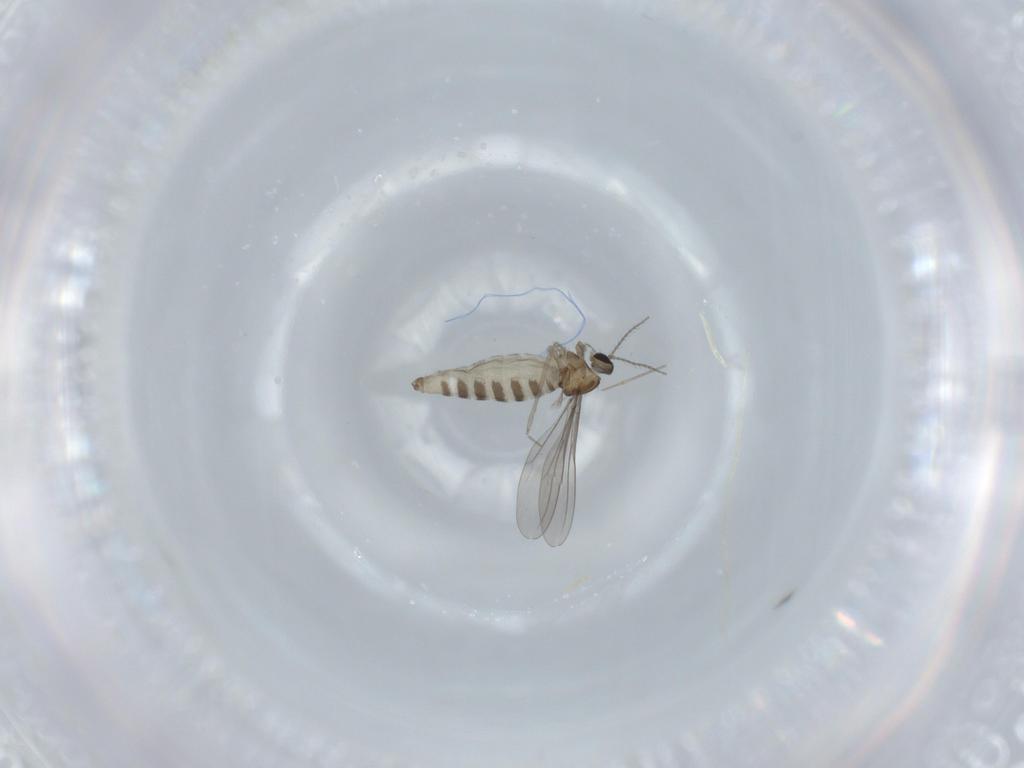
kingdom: Animalia
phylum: Arthropoda
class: Insecta
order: Diptera
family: Cecidomyiidae
